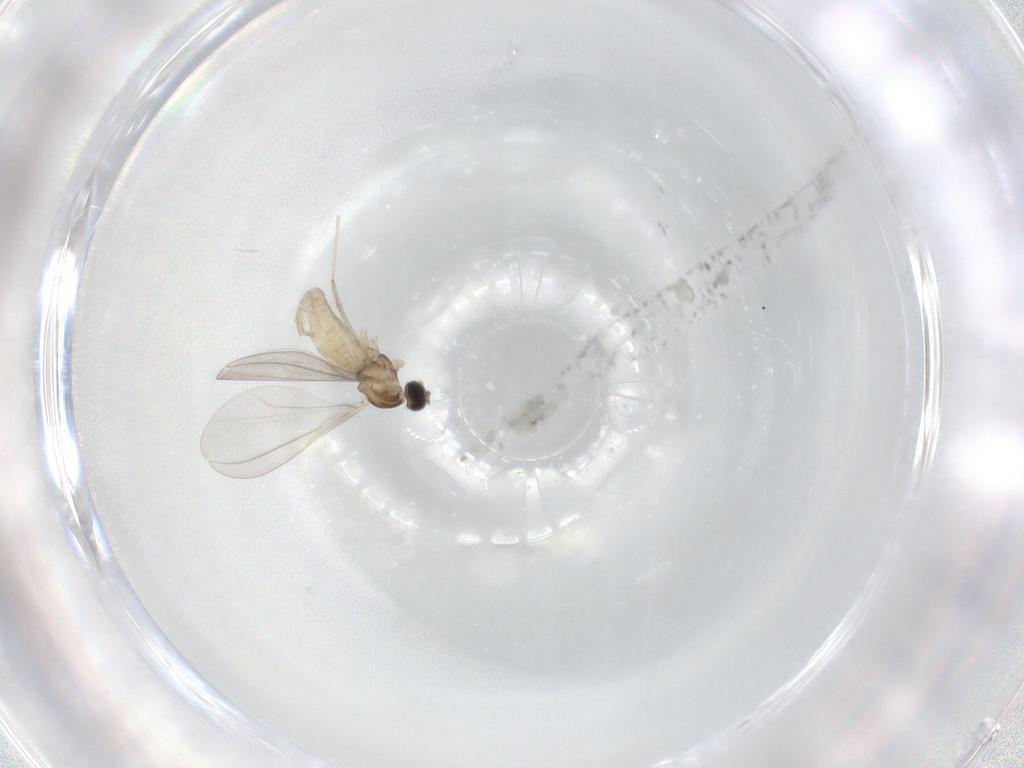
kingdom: Animalia
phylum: Arthropoda
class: Insecta
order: Diptera
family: Cecidomyiidae
